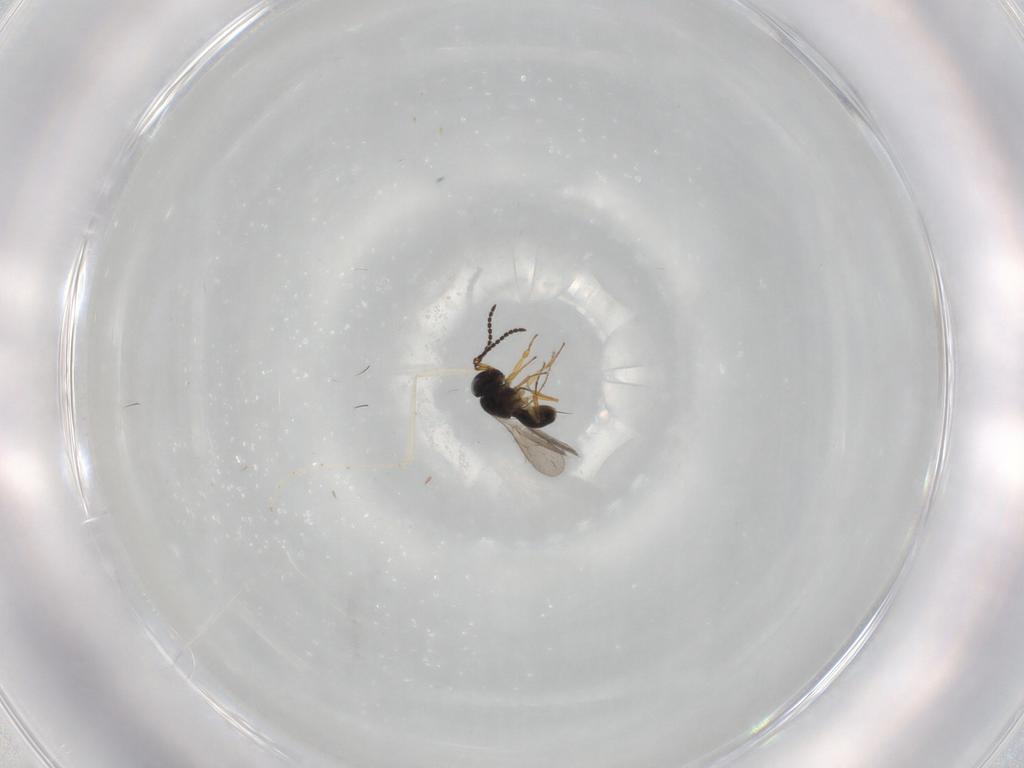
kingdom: Animalia
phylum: Arthropoda
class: Insecta
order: Hymenoptera
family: Scelionidae
